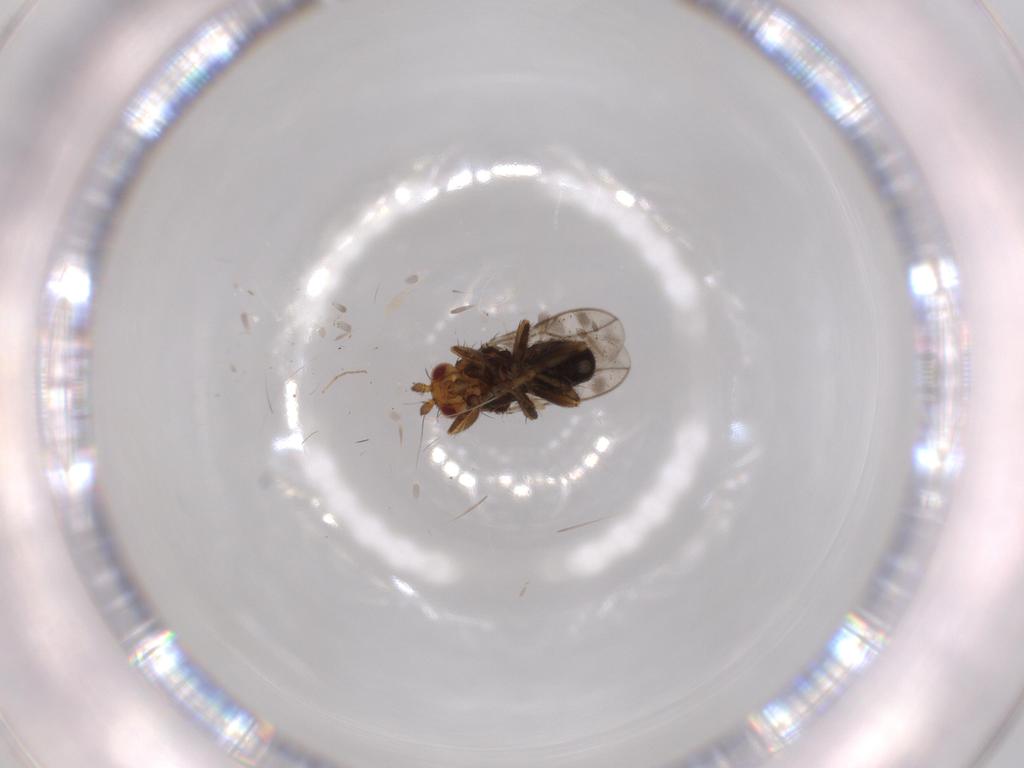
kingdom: Animalia
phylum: Arthropoda
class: Insecta
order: Diptera
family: Sphaeroceridae
